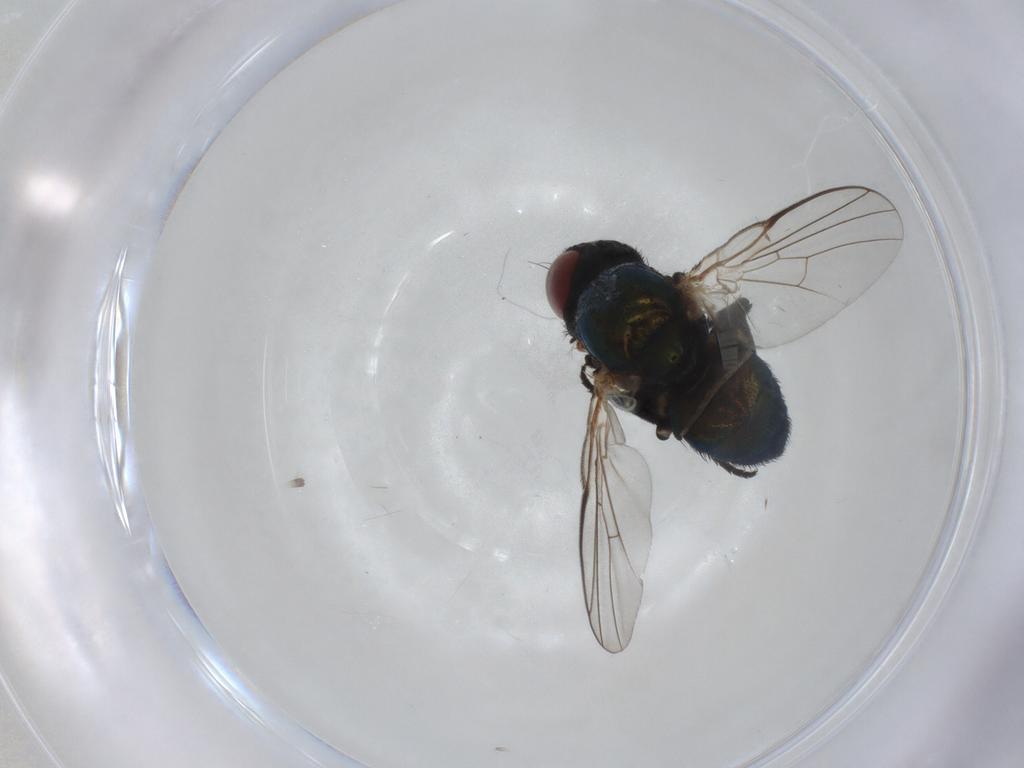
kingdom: Animalia
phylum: Arthropoda
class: Insecta
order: Diptera
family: Agromyzidae
